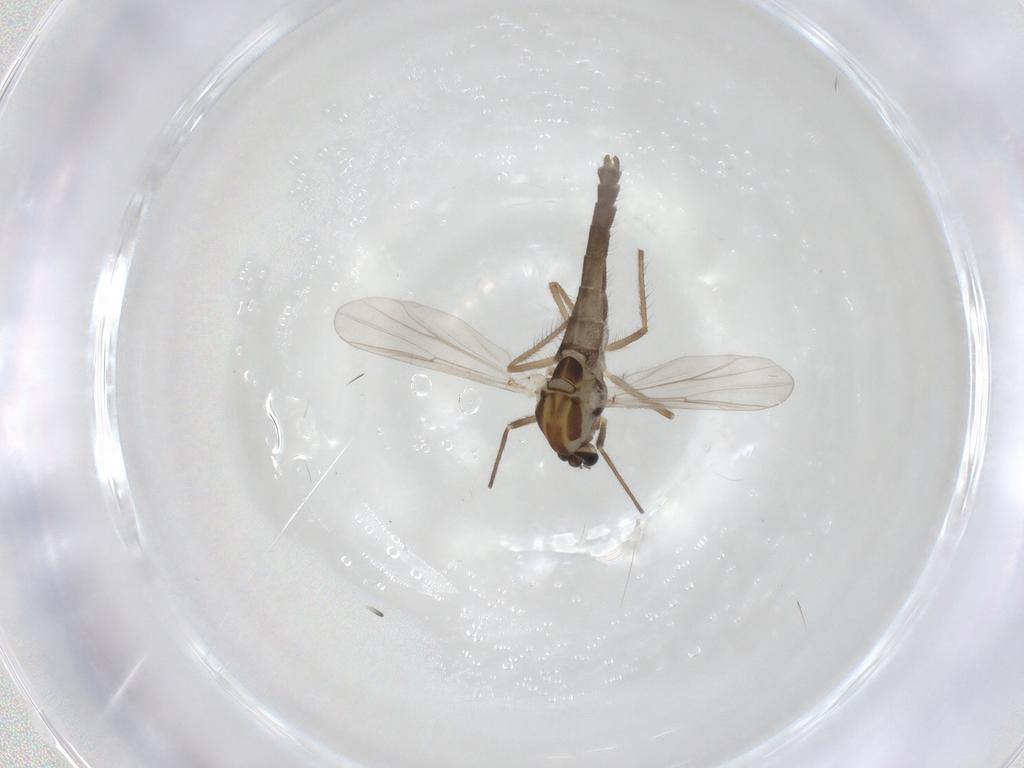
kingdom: Animalia
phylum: Arthropoda
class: Insecta
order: Diptera
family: Chironomidae
